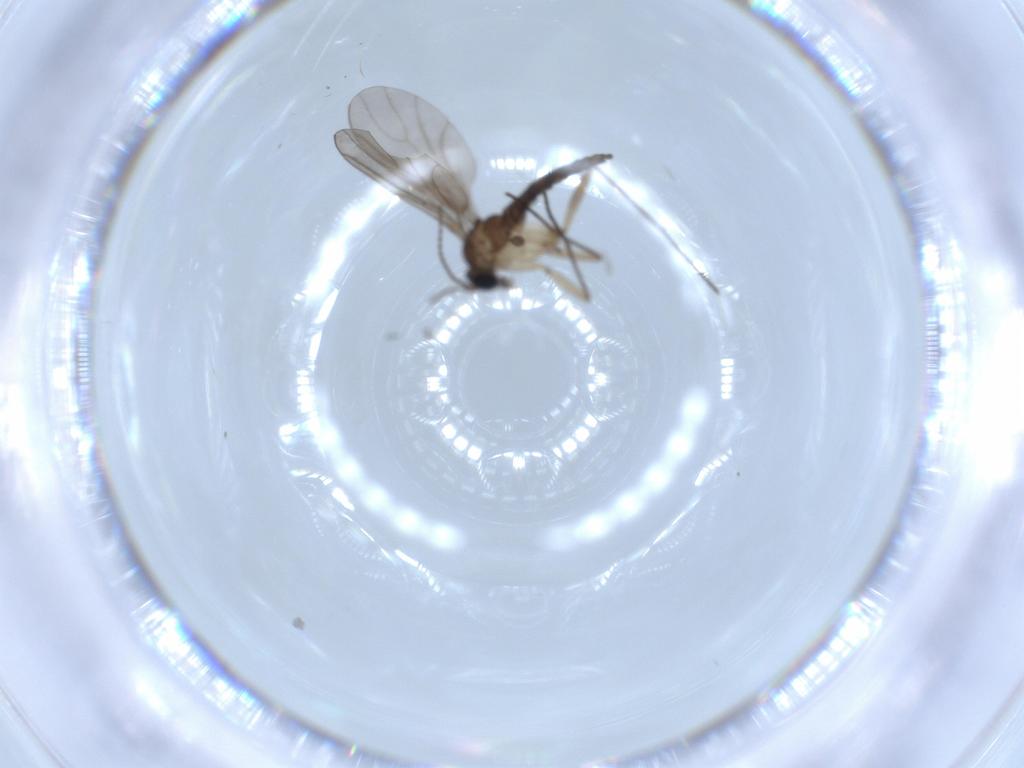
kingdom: Animalia
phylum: Arthropoda
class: Insecta
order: Diptera
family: Sciaridae
